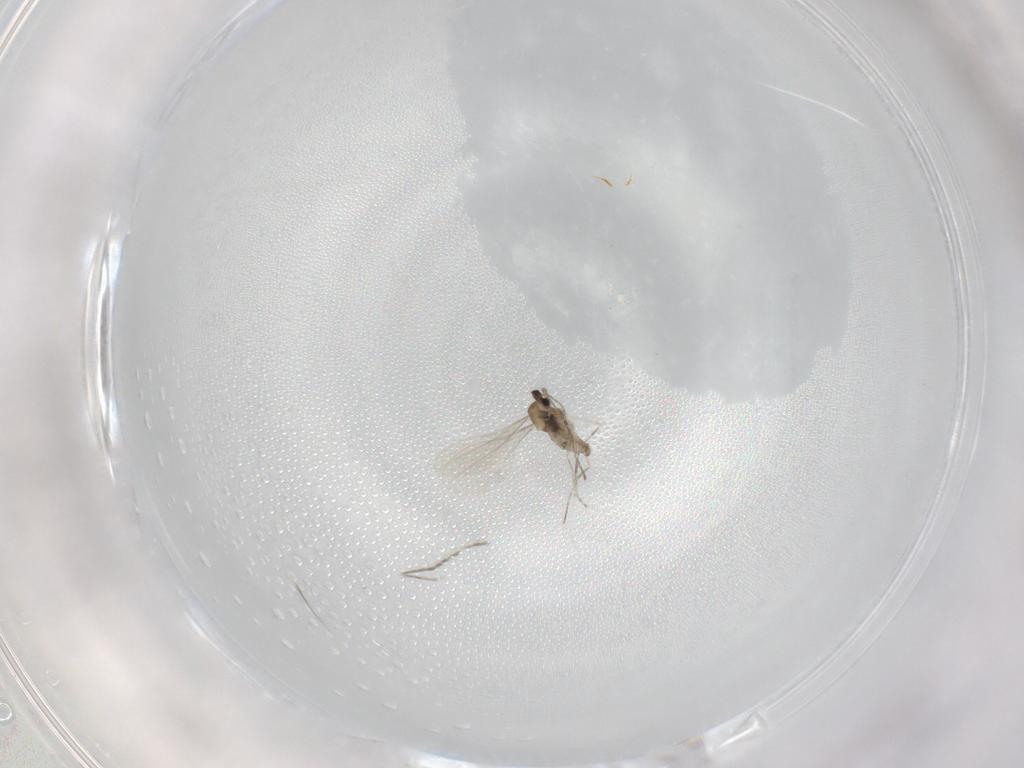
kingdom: Animalia
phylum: Arthropoda
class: Insecta
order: Diptera
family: Cecidomyiidae
